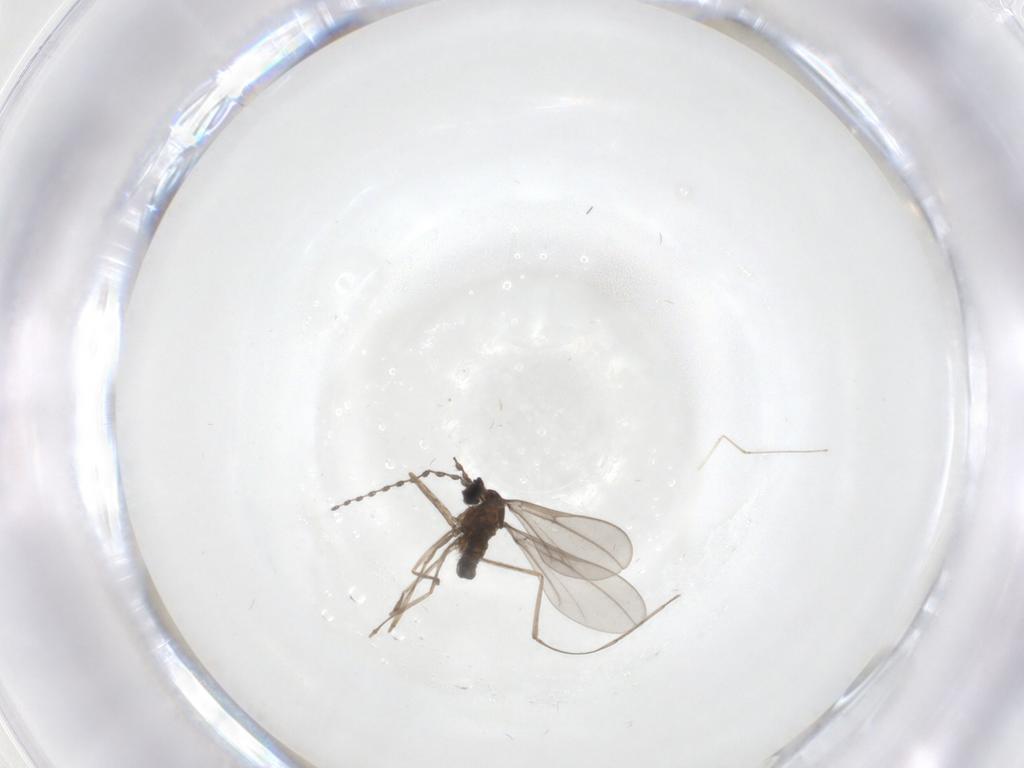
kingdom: Animalia
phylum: Arthropoda
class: Insecta
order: Diptera
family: Cecidomyiidae
